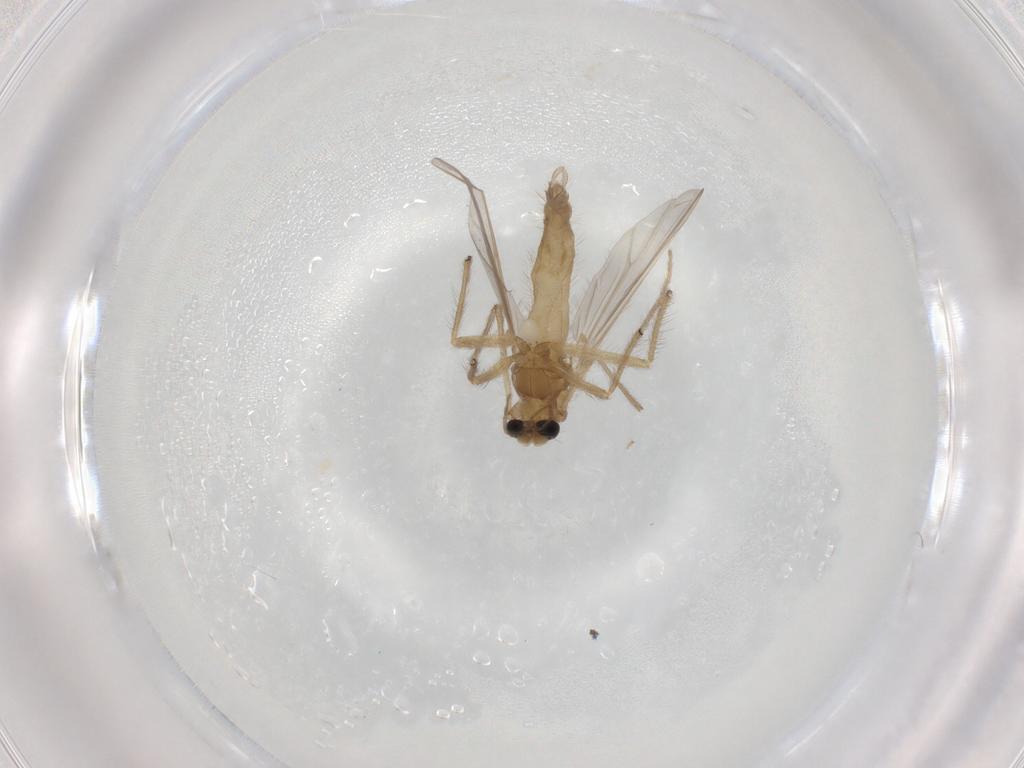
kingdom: Animalia
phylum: Arthropoda
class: Insecta
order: Diptera
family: Chironomidae
